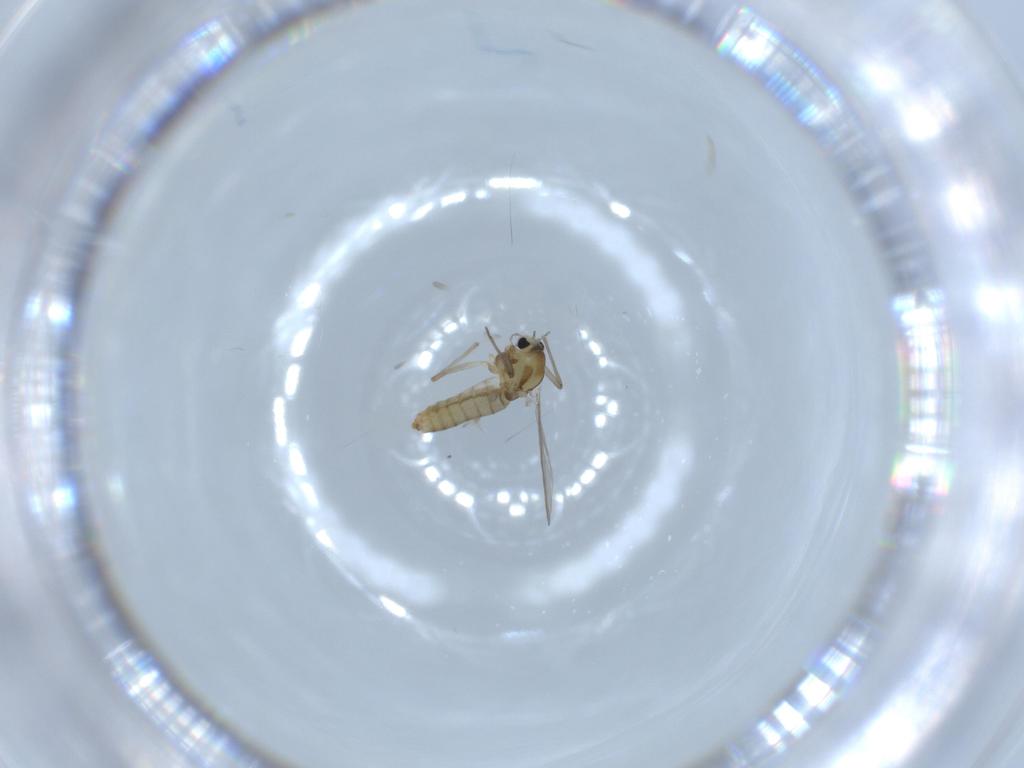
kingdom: Animalia
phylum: Arthropoda
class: Insecta
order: Diptera
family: Chironomidae
